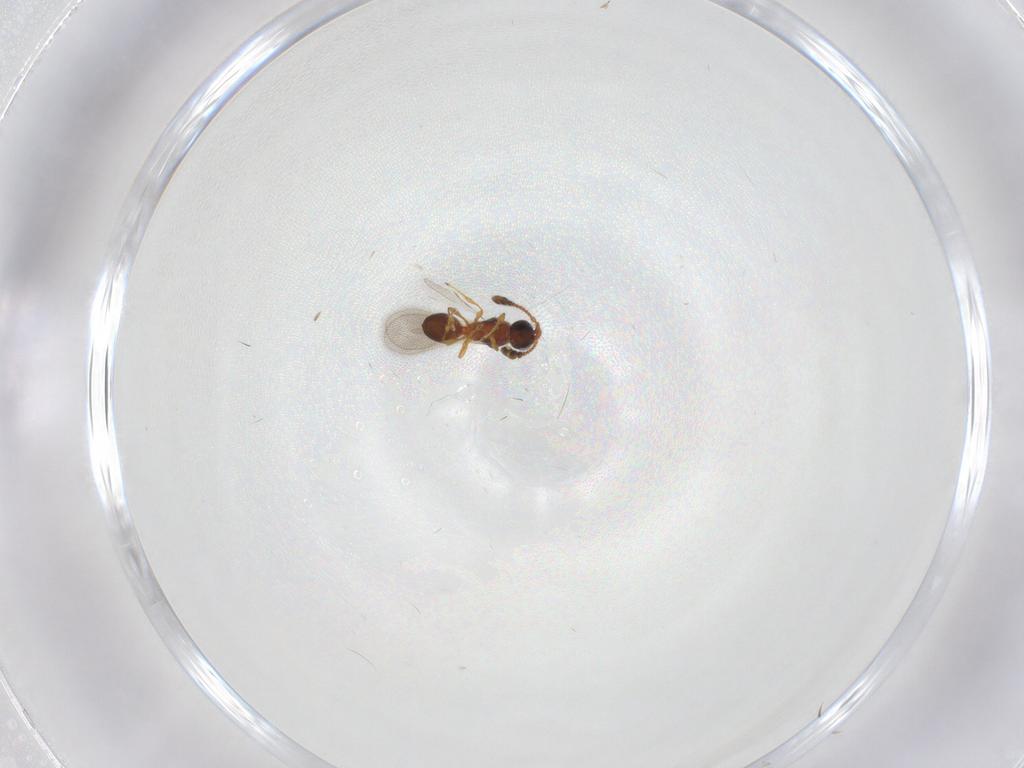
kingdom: Animalia
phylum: Arthropoda
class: Insecta
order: Hymenoptera
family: Diapriidae
